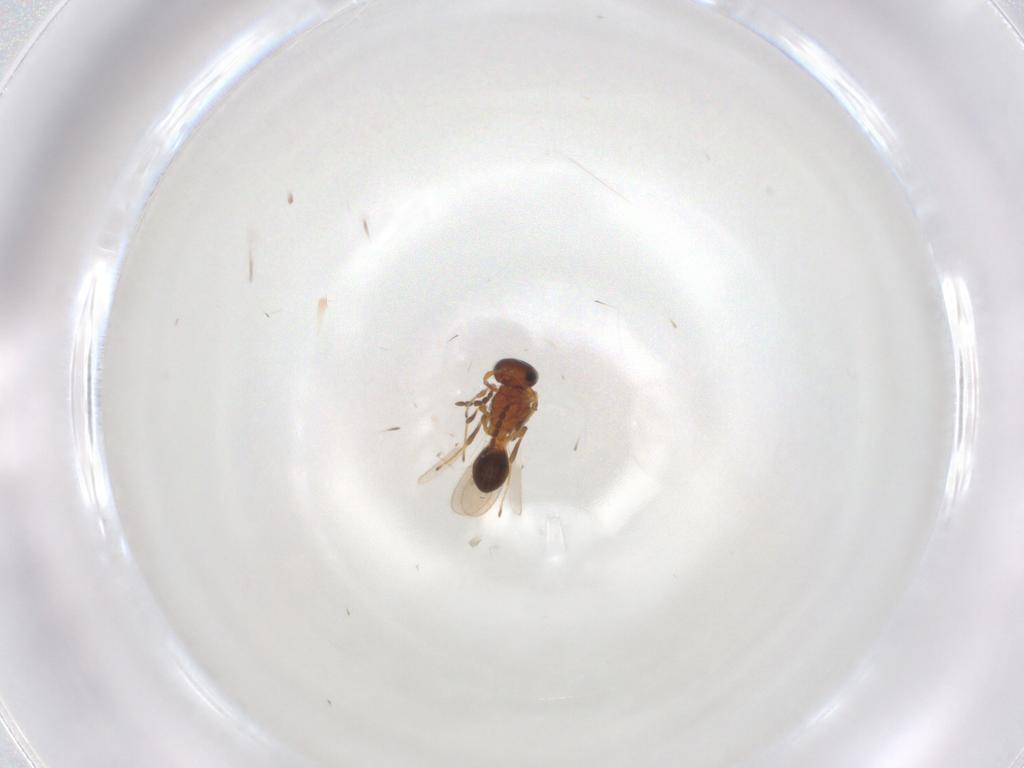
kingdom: Animalia
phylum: Arthropoda
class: Insecta
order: Hymenoptera
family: Platygastridae
